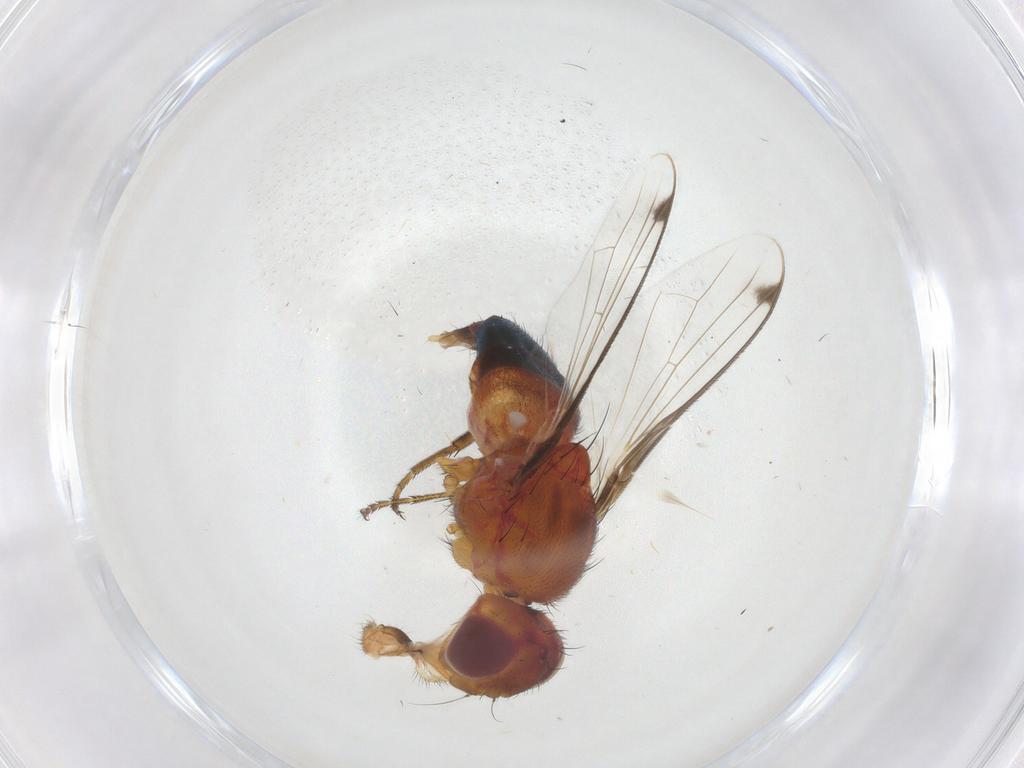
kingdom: Animalia
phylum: Arthropoda
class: Insecta
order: Diptera
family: Richardiidae
